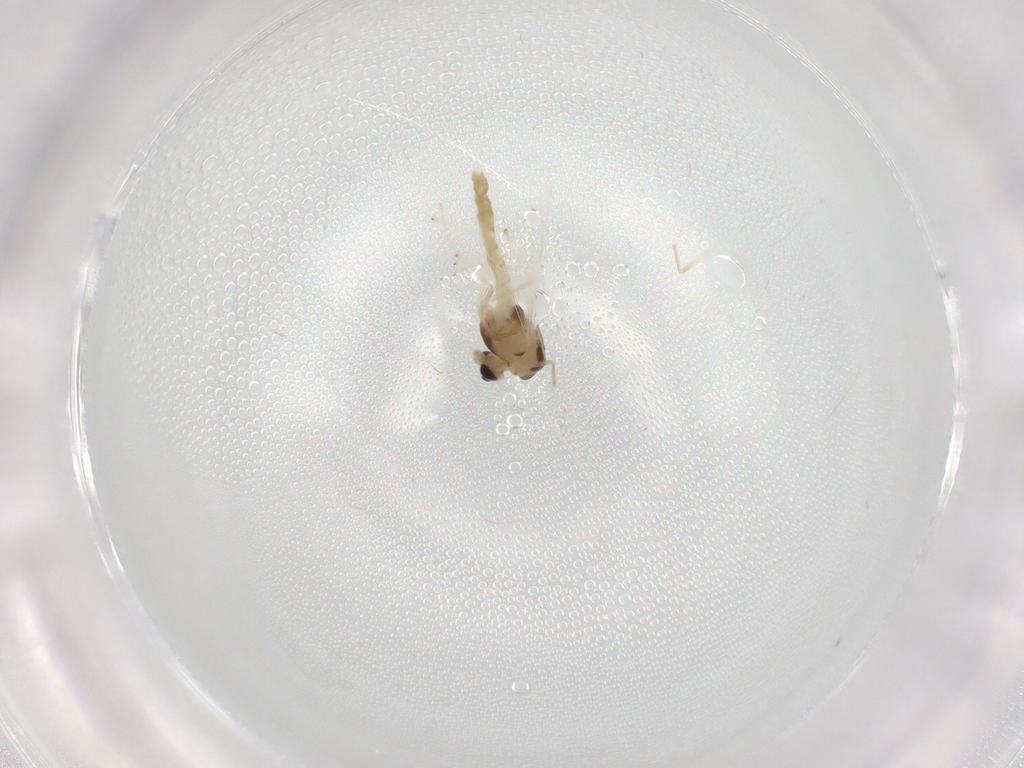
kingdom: Animalia
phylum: Arthropoda
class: Insecta
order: Diptera
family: Chironomidae
